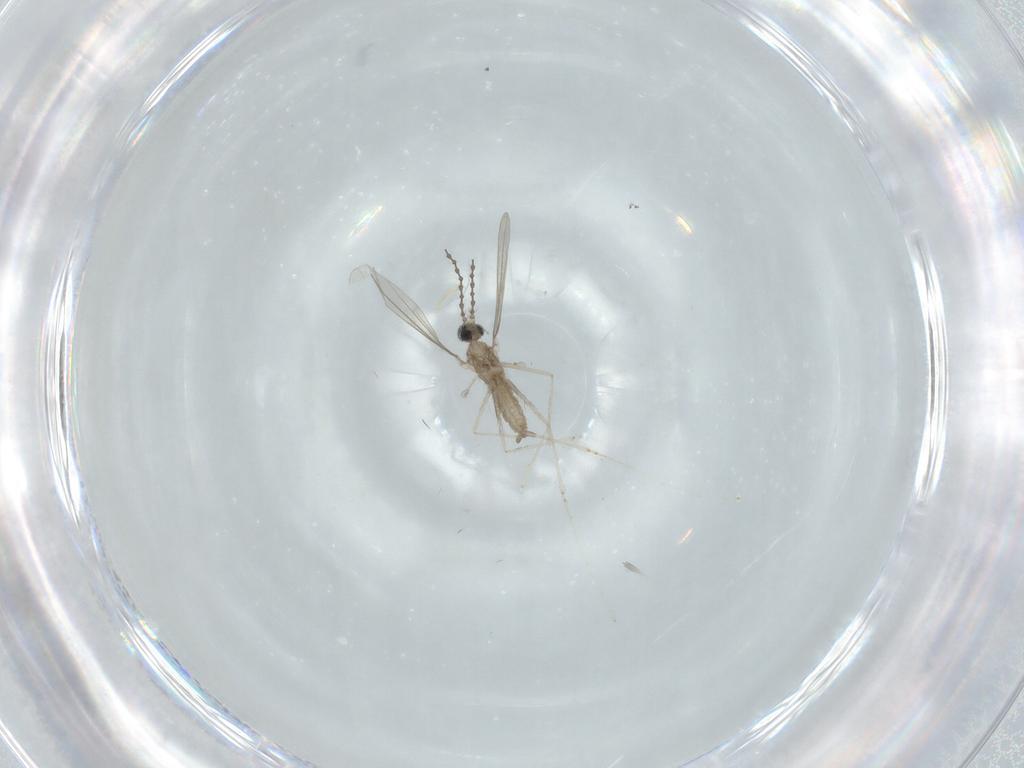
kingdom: Animalia
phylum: Arthropoda
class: Insecta
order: Diptera
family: Cecidomyiidae
